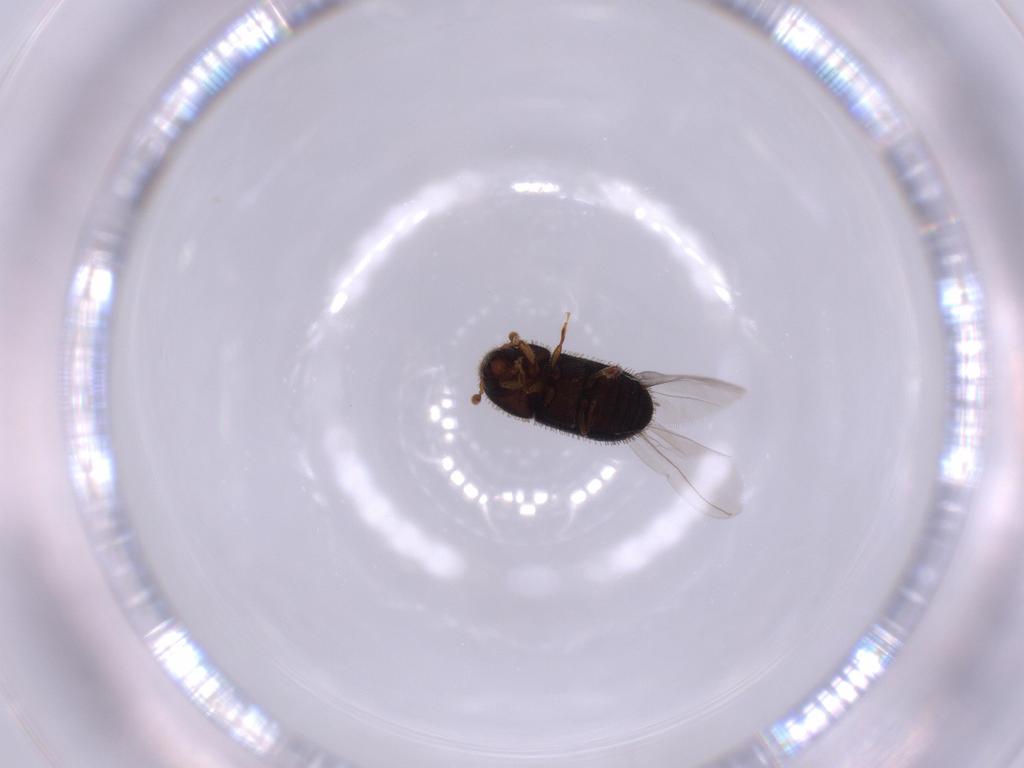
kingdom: Animalia
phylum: Arthropoda
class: Insecta
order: Coleoptera
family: Curculionidae
